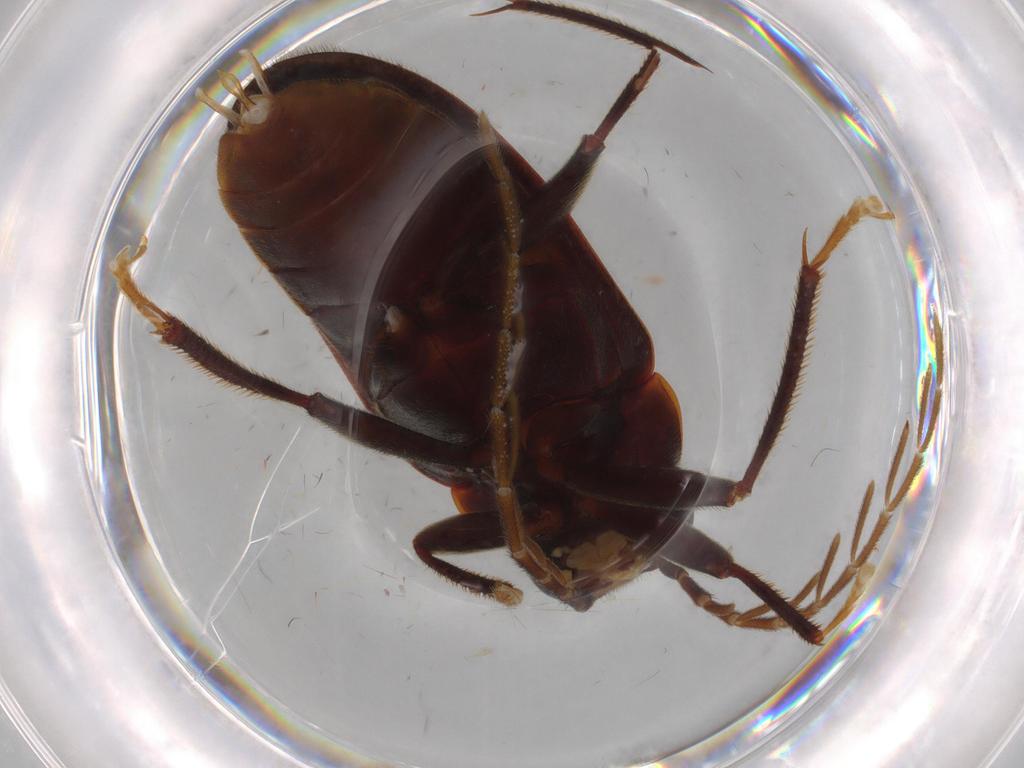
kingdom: Animalia
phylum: Arthropoda
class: Insecta
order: Coleoptera
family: Ptilodactylidae
